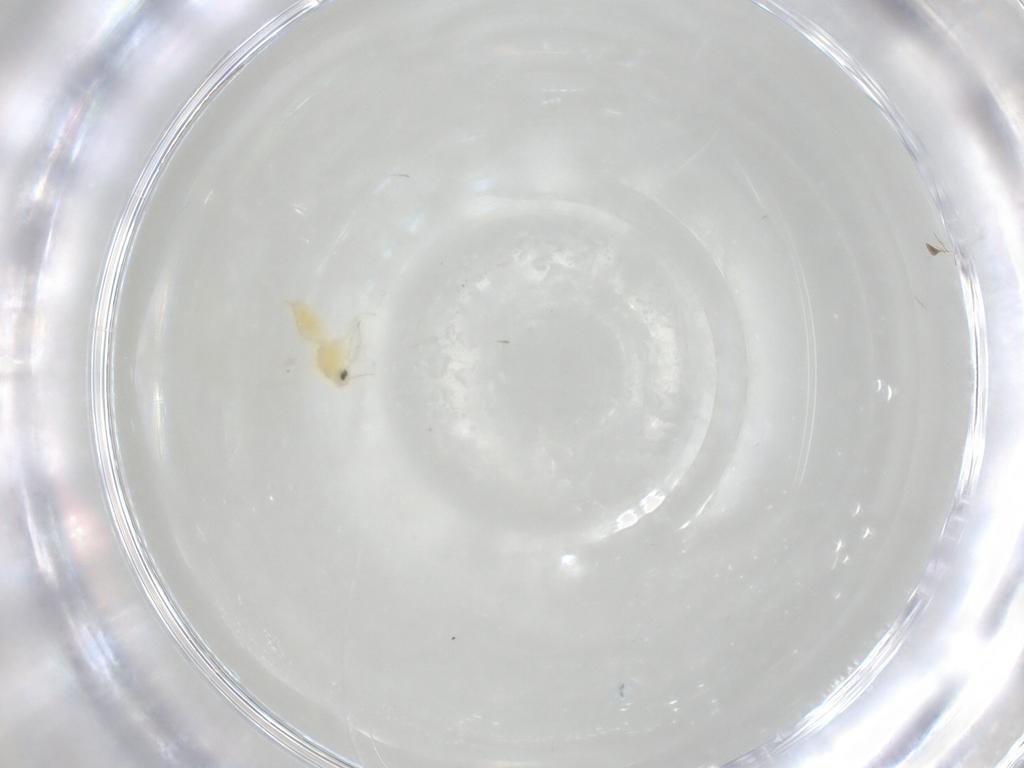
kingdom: Animalia
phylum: Arthropoda
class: Insecta
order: Hemiptera
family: Aleyrodidae
